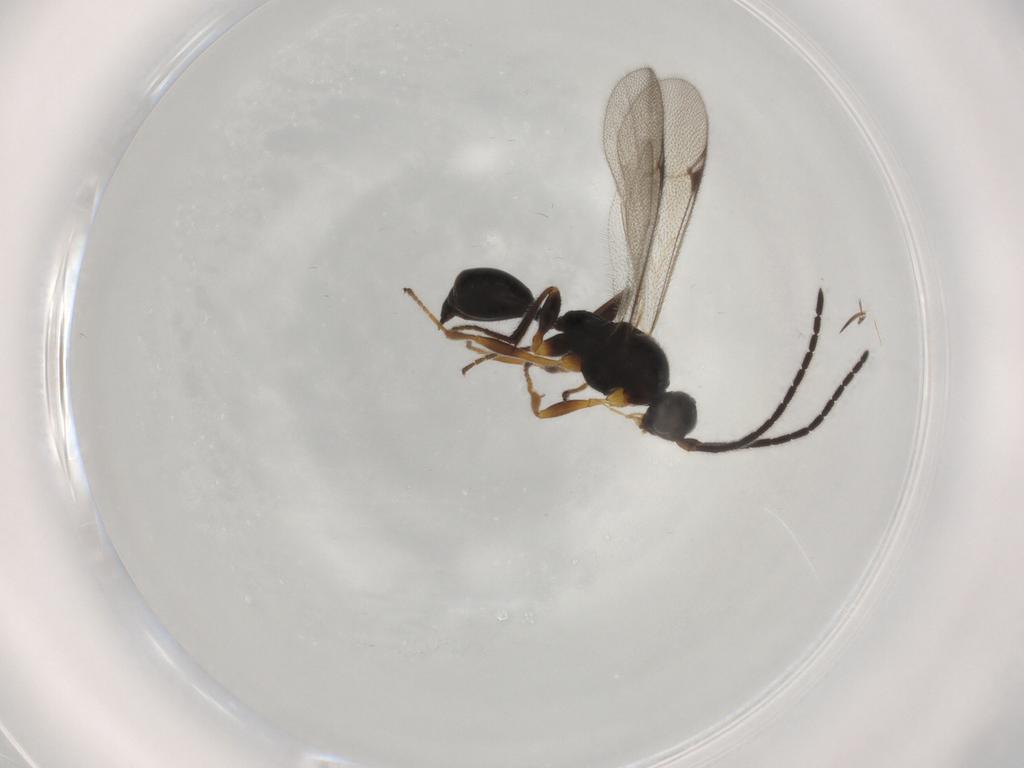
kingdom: Animalia
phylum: Arthropoda
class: Insecta
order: Hymenoptera
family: Proctotrupidae
